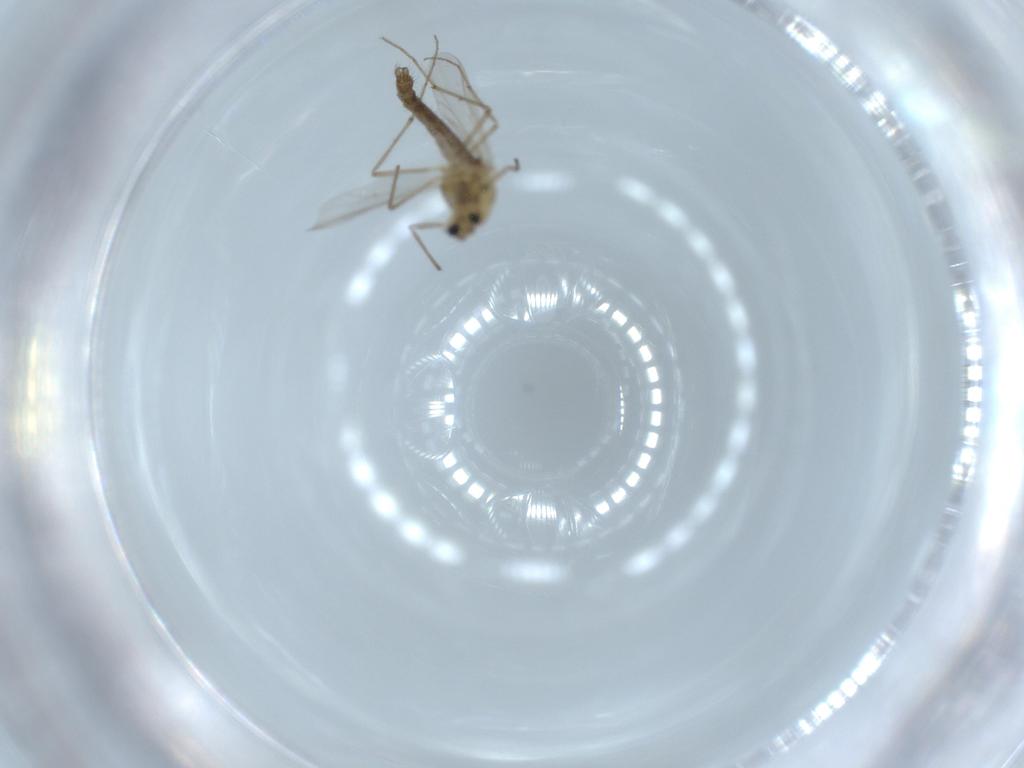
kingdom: Animalia
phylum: Arthropoda
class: Insecta
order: Diptera
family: Chironomidae
